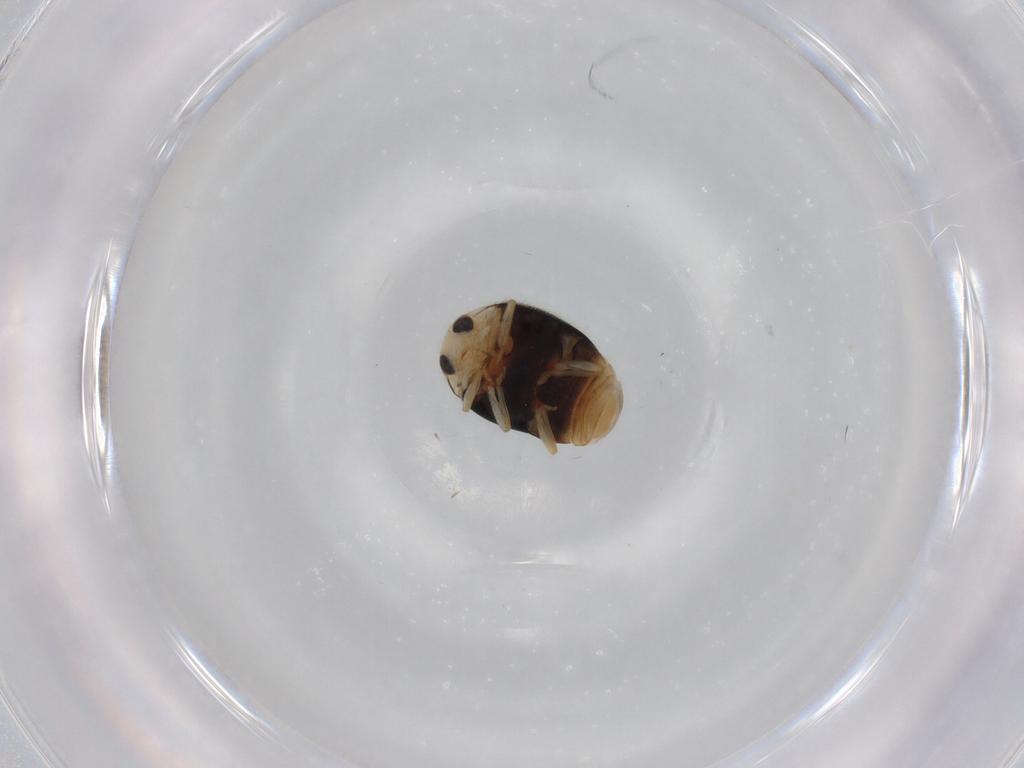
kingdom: Animalia
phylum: Arthropoda
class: Insecta
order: Coleoptera
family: Coccinellidae
